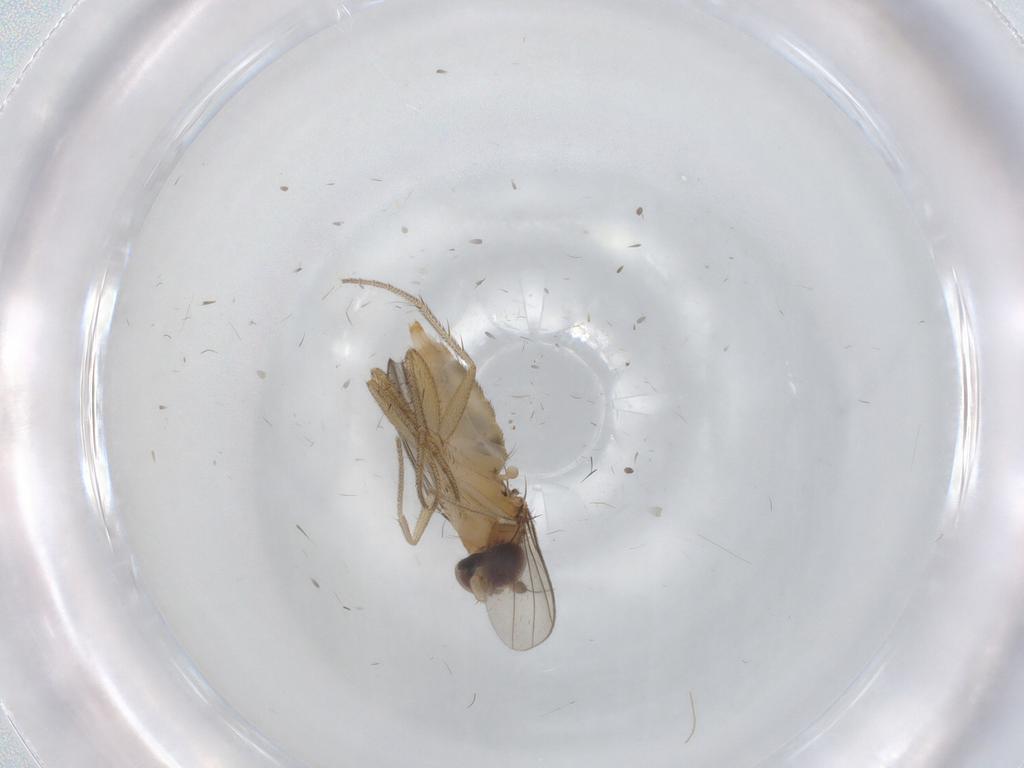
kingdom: Animalia
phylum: Arthropoda
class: Insecta
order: Diptera
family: Dolichopodidae
